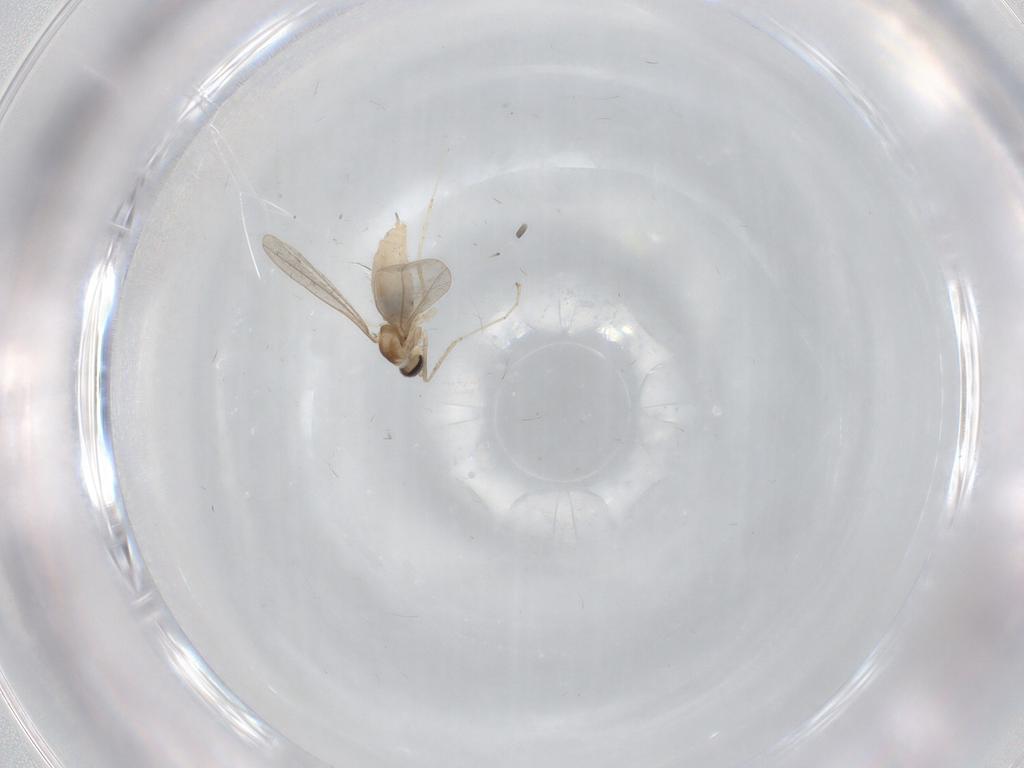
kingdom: Animalia
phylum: Arthropoda
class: Insecta
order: Diptera
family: Cecidomyiidae
